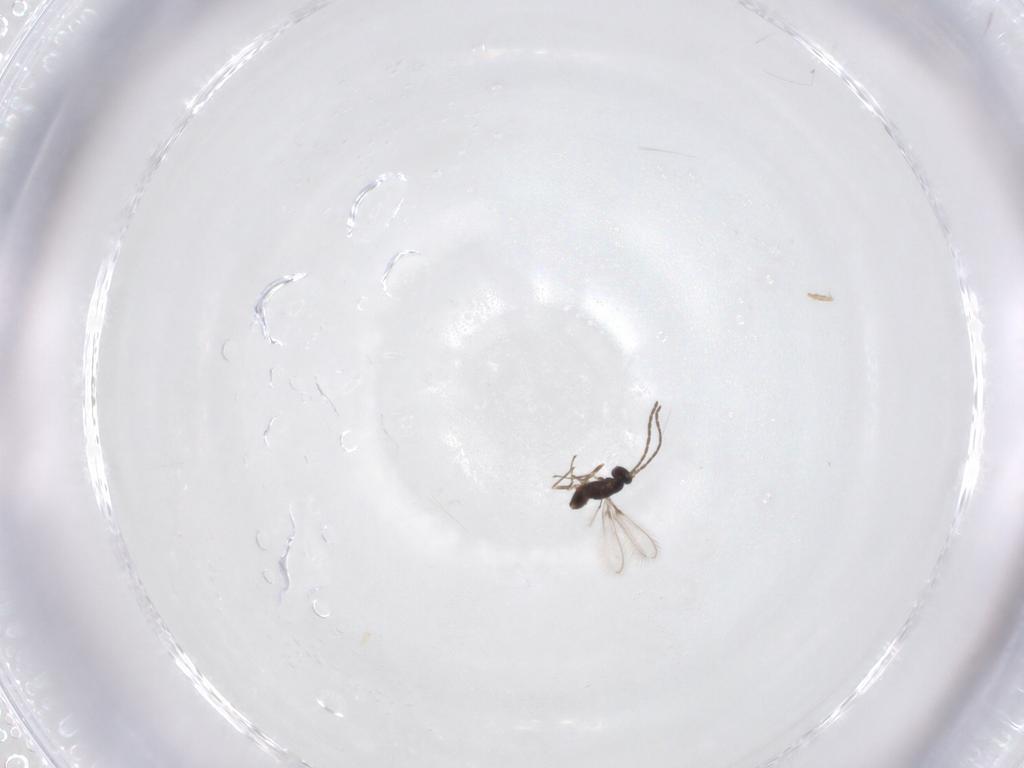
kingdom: Animalia
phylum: Arthropoda
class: Insecta
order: Hymenoptera
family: Mymaridae
